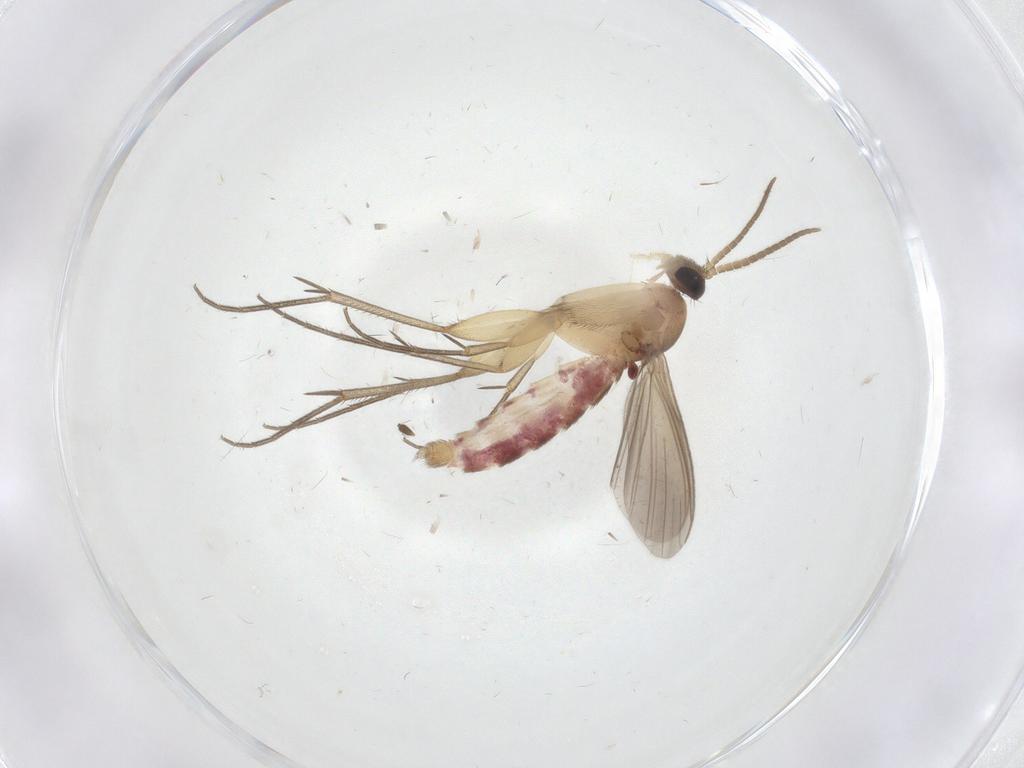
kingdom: Animalia
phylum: Arthropoda
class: Insecta
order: Diptera
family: Mycetophilidae
